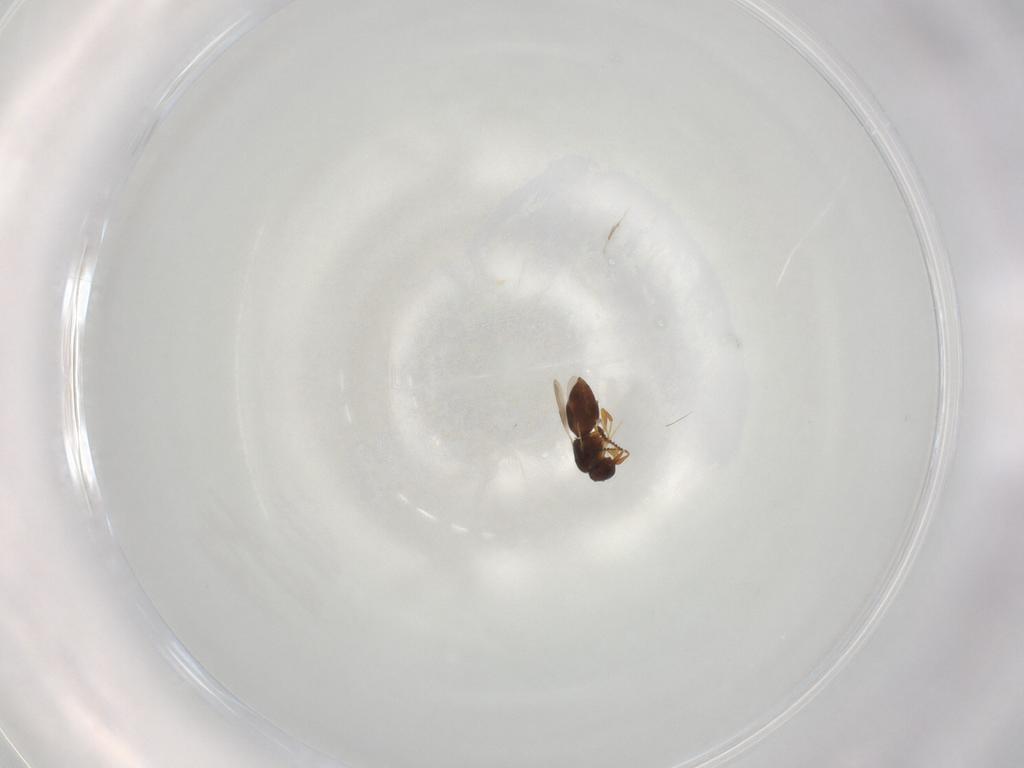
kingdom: Animalia
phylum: Arthropoda
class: Insecta
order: Hymenoptera
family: Ceraphronidae
